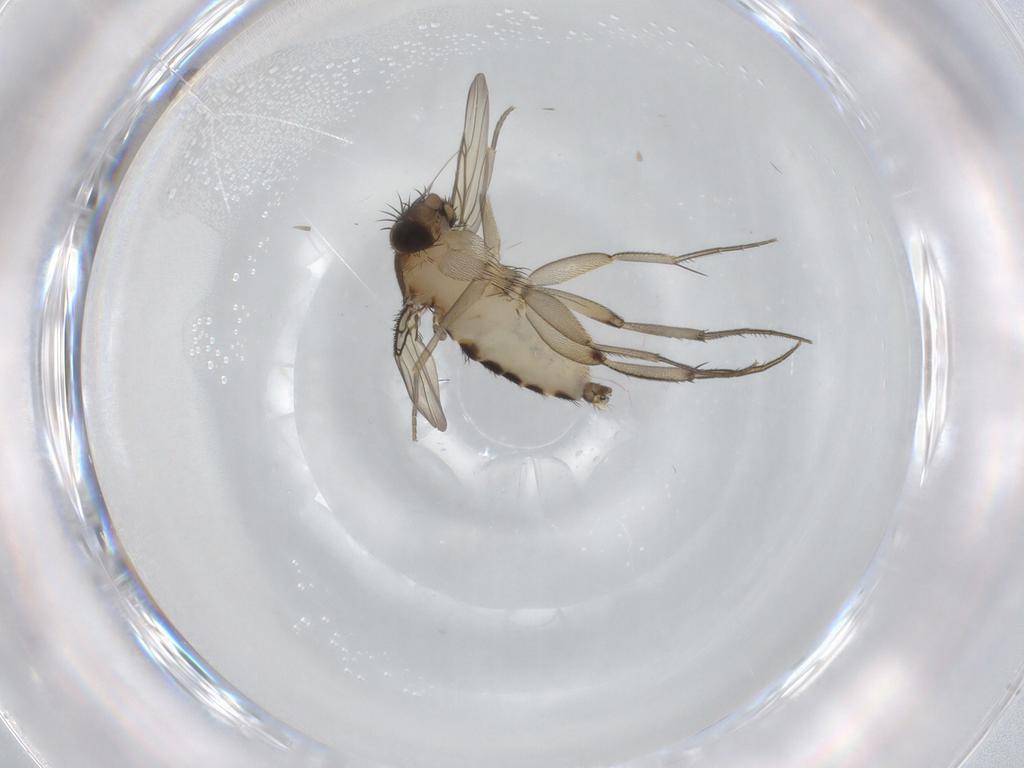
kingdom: Animalia
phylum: Arthropoda
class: Insecta
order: Diptera
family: Phoridae
